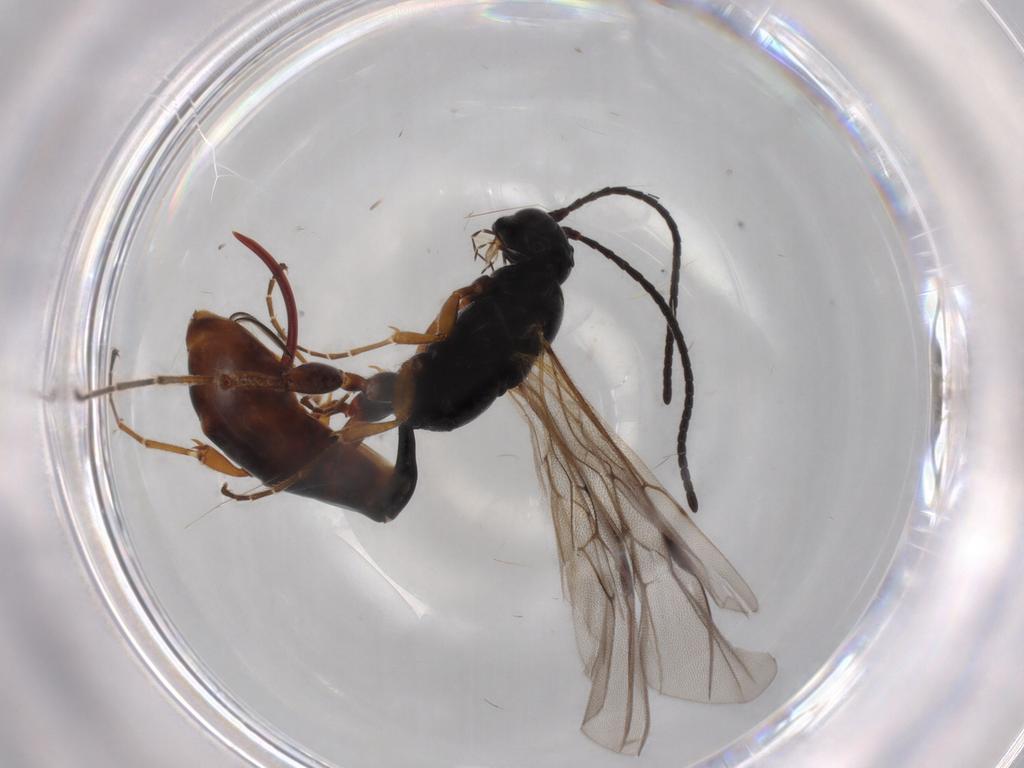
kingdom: Animalia
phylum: Arthropoda
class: Insecta
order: Hymenoptera
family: Ichneumonidae
